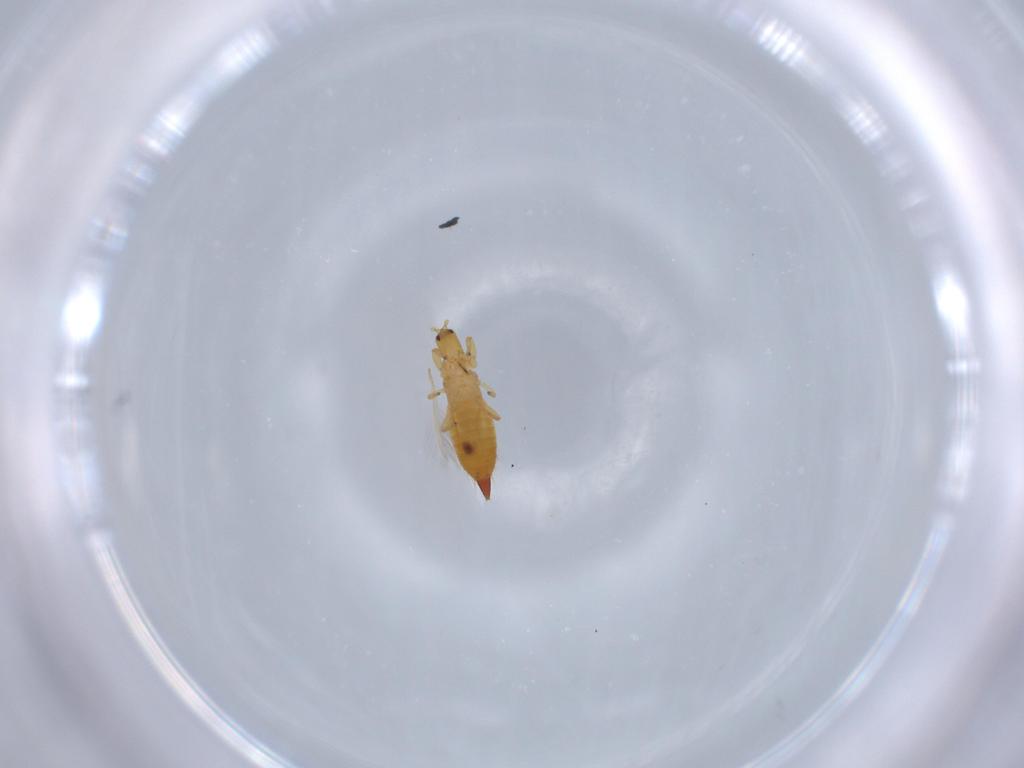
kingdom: Animalia
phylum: Arthropoda
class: Insecta
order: Thysanoptera
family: Phlaeothripidae
